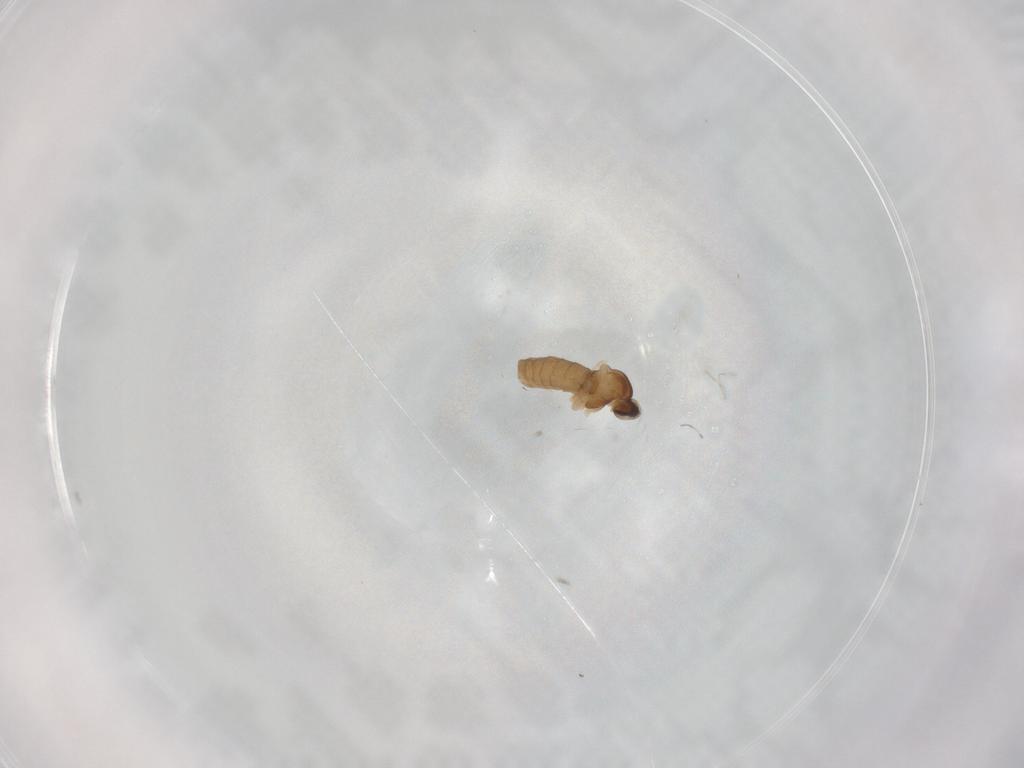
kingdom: Animalia
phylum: Arthropoda
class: Insecta
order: Diptera
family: Cecidomyiidae
